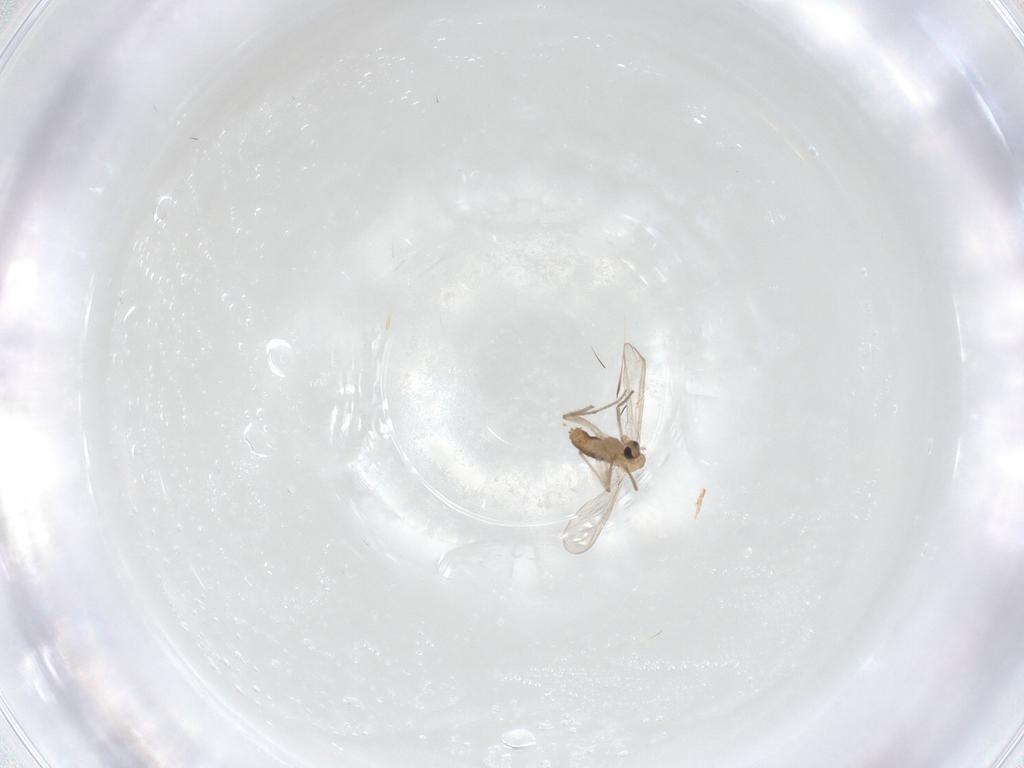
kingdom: Animalia
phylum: Arthropoda
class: Insecta
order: Diptera
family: Chironomidae
